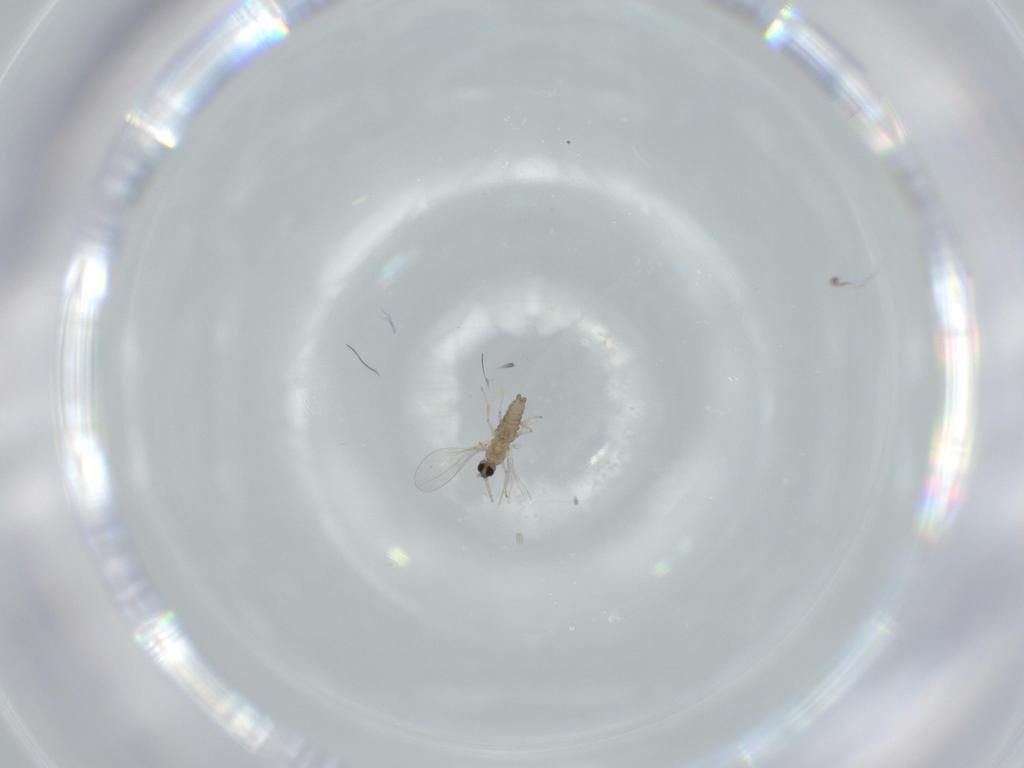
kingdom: Animalia
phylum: Arthropoda
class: Insecta
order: Diptera
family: Cecidomyiidae
